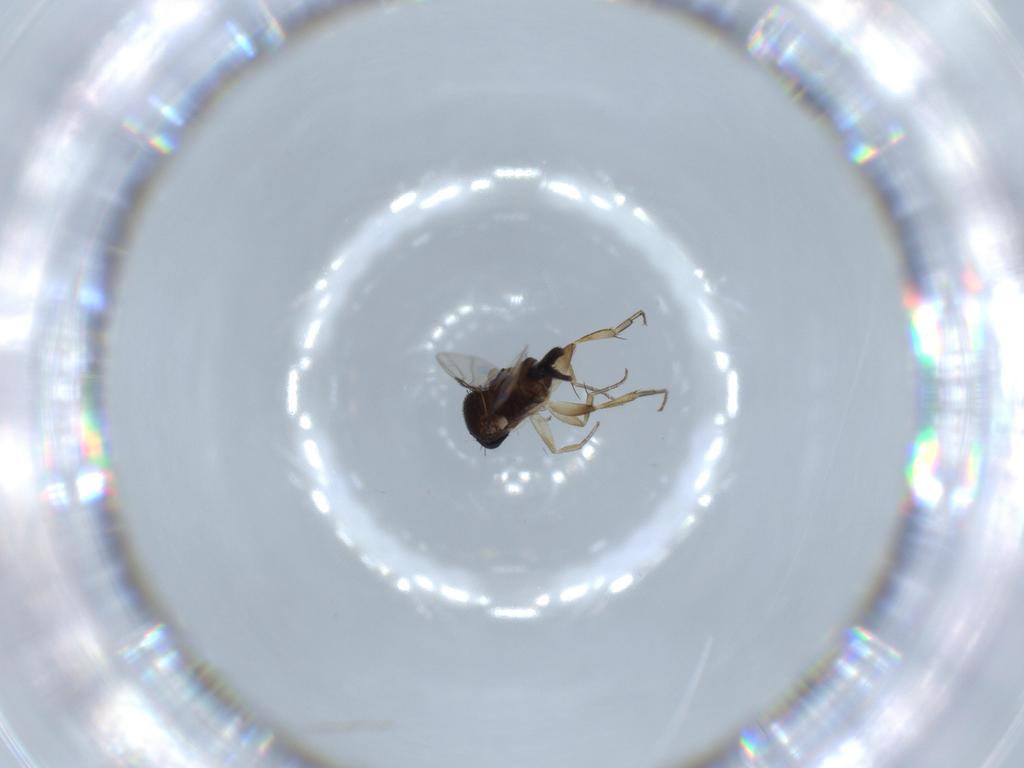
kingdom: Animalia
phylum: Arthropoda
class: Insecta
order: Diptera
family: Phoridae
